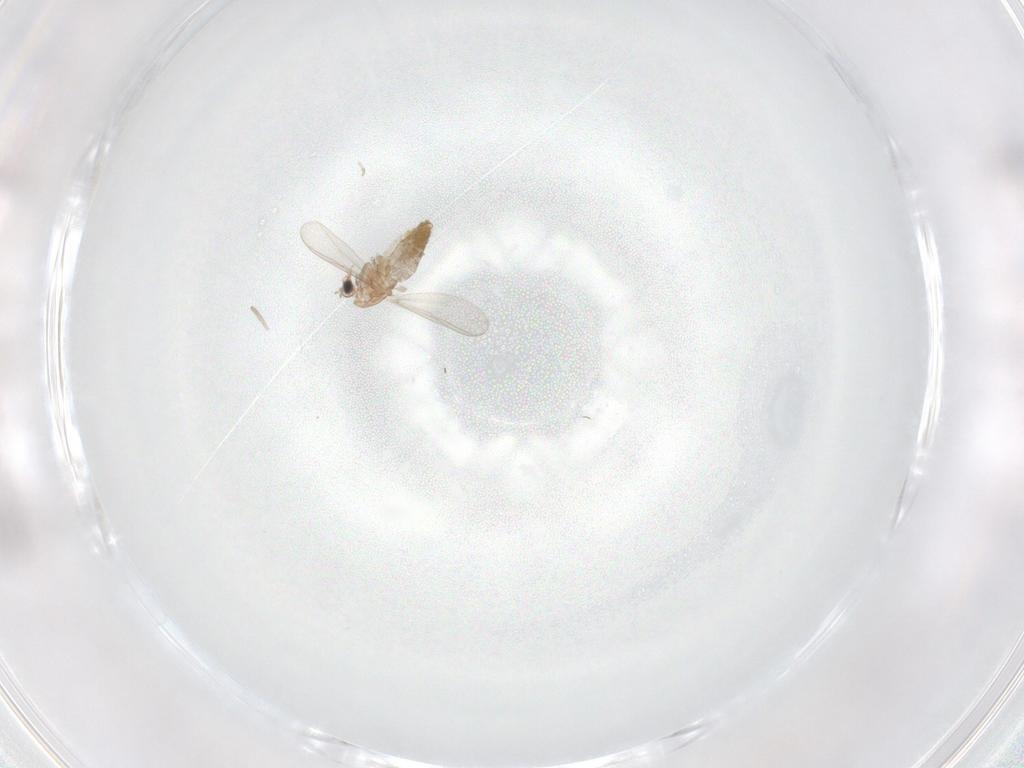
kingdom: Animalia
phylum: Arthropoda
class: Insecta
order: Diptera
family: Chironomidae
